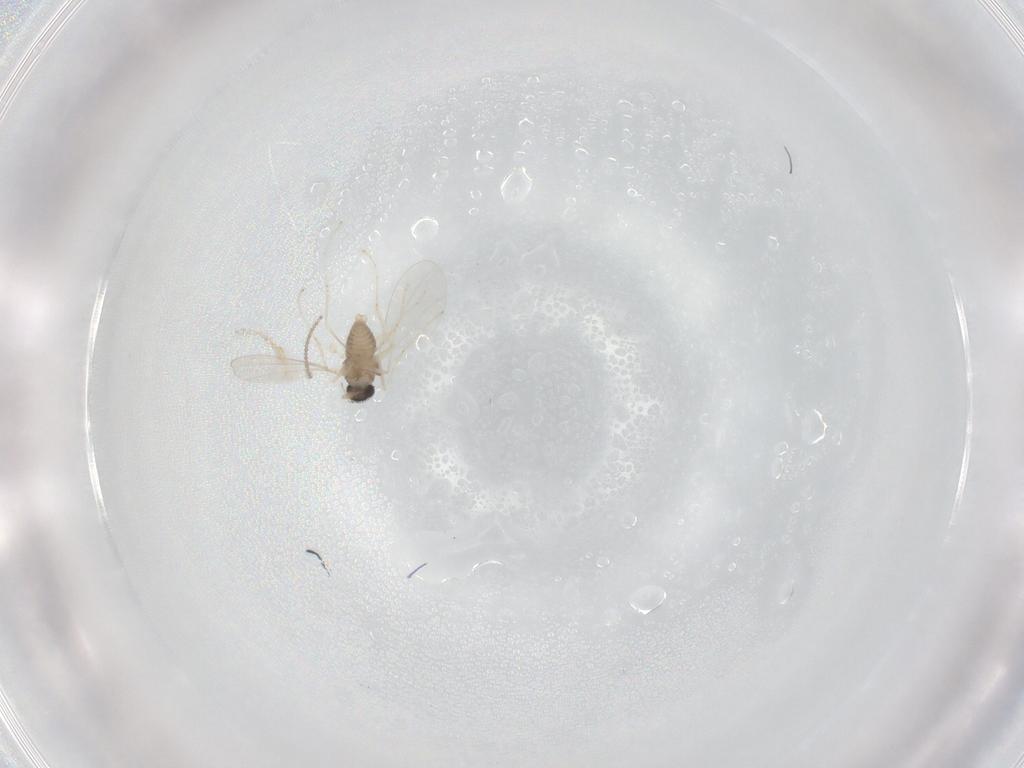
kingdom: Animalia
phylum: Arthropoda
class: Insecta
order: Diptera
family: Cecidomyiidae
